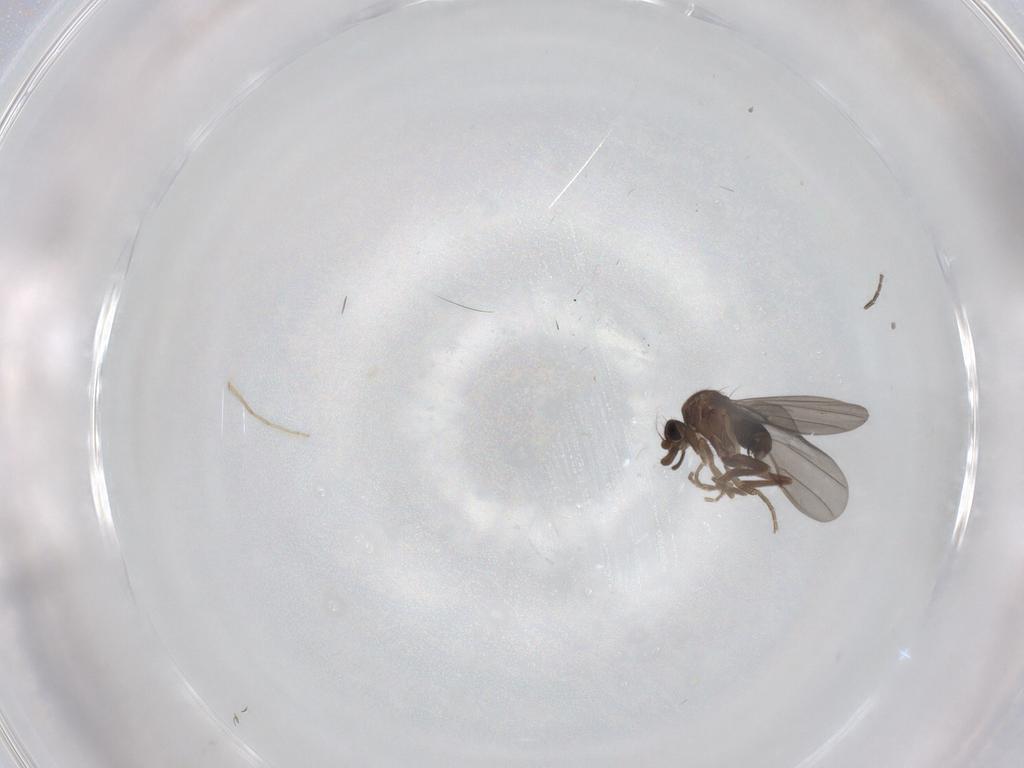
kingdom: Animalia
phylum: Arthropoda
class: Insecta
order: Diptera
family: Phoridae
